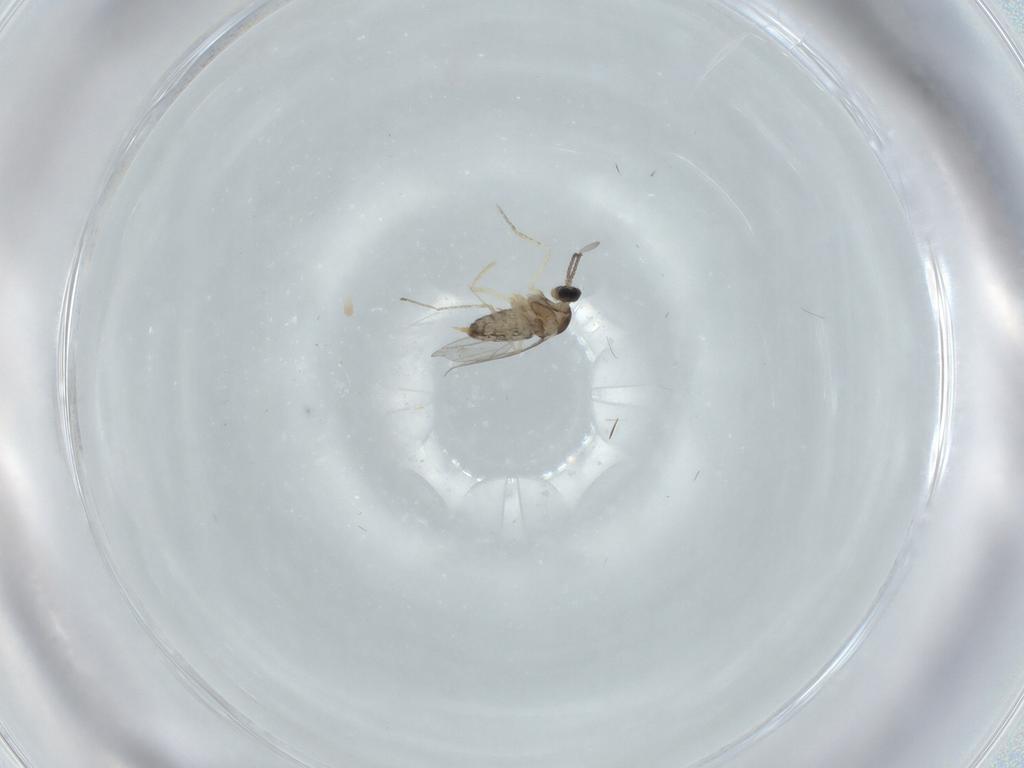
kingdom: Animalia
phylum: Arthropoda
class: Insecta
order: Diptera
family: Cecidomyiidae
